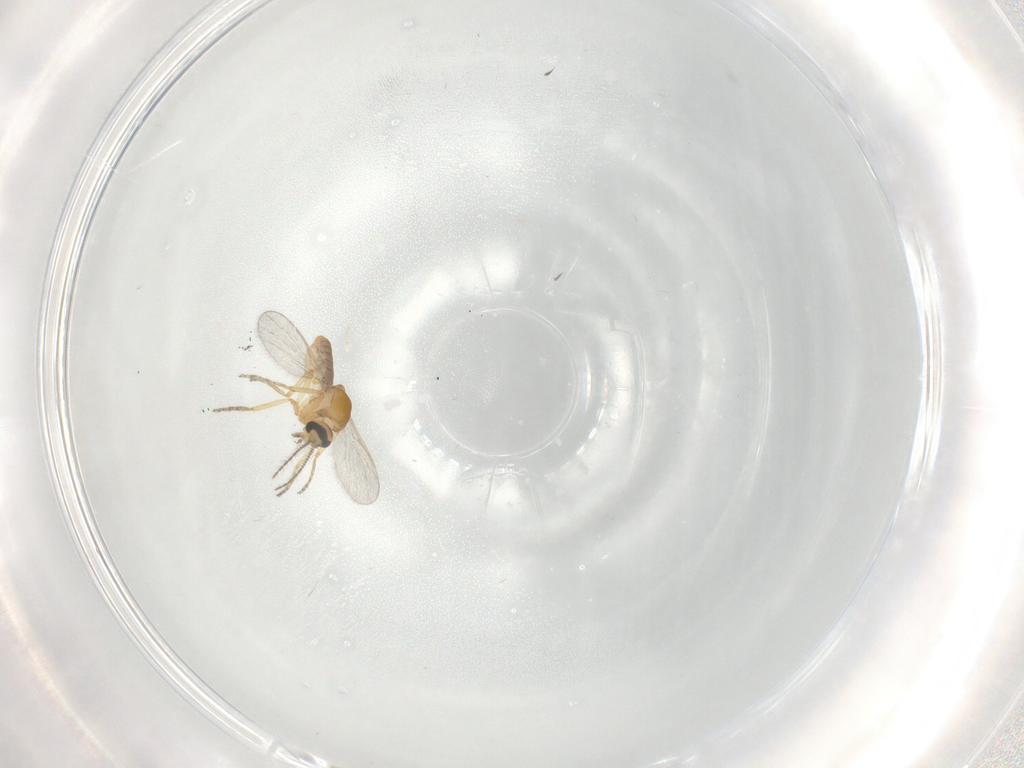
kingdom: Animalia
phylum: Arthropoda
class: Insecta
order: Diptera
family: Ceratopogonidae
